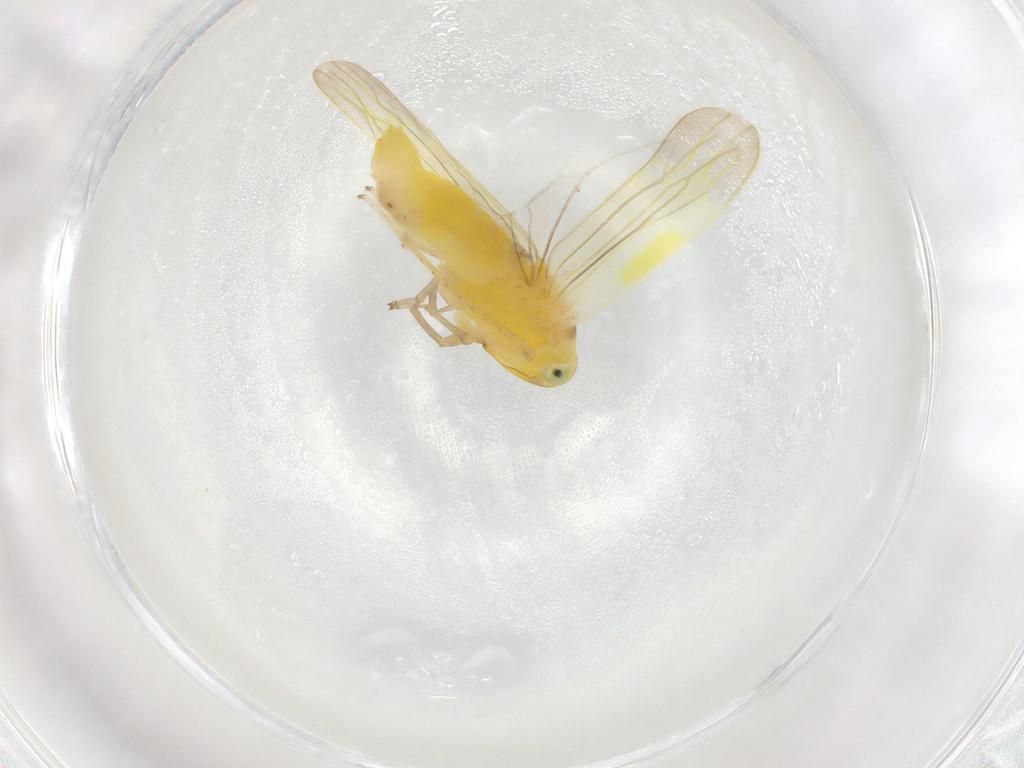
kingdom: Animalia
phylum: Arthropoda
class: Insecta
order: Hemiptera
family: Cicadellidae
